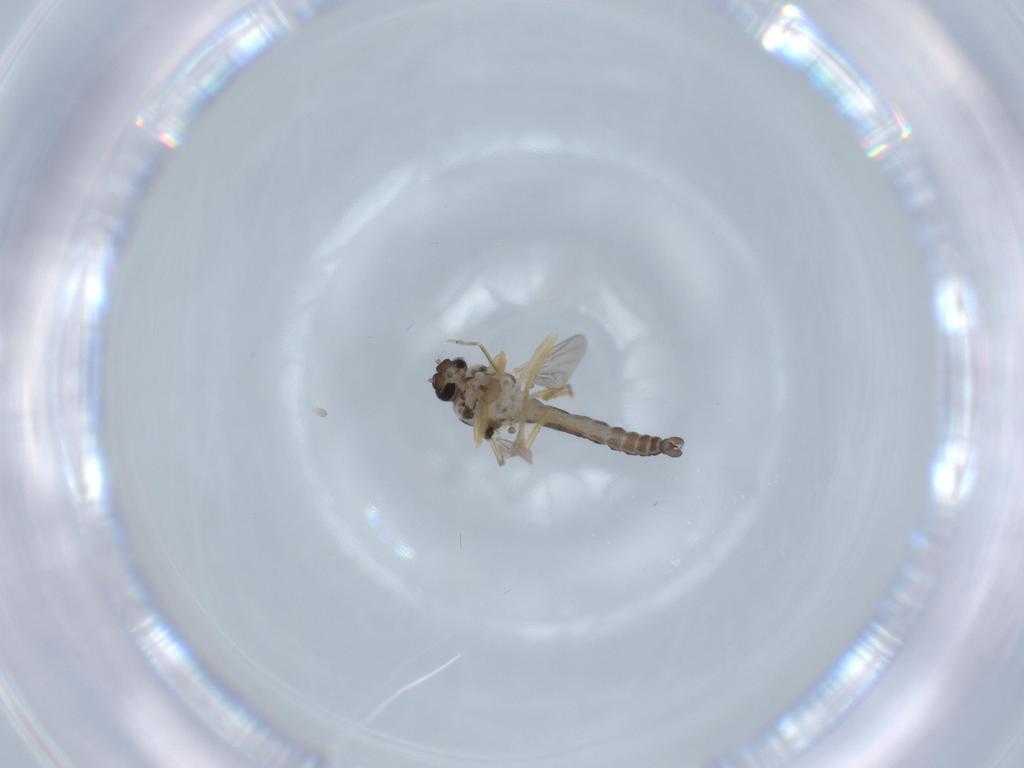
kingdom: Animalia
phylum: Arthropoda
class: Insecta
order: Diptera
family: Ceratopogonidae
